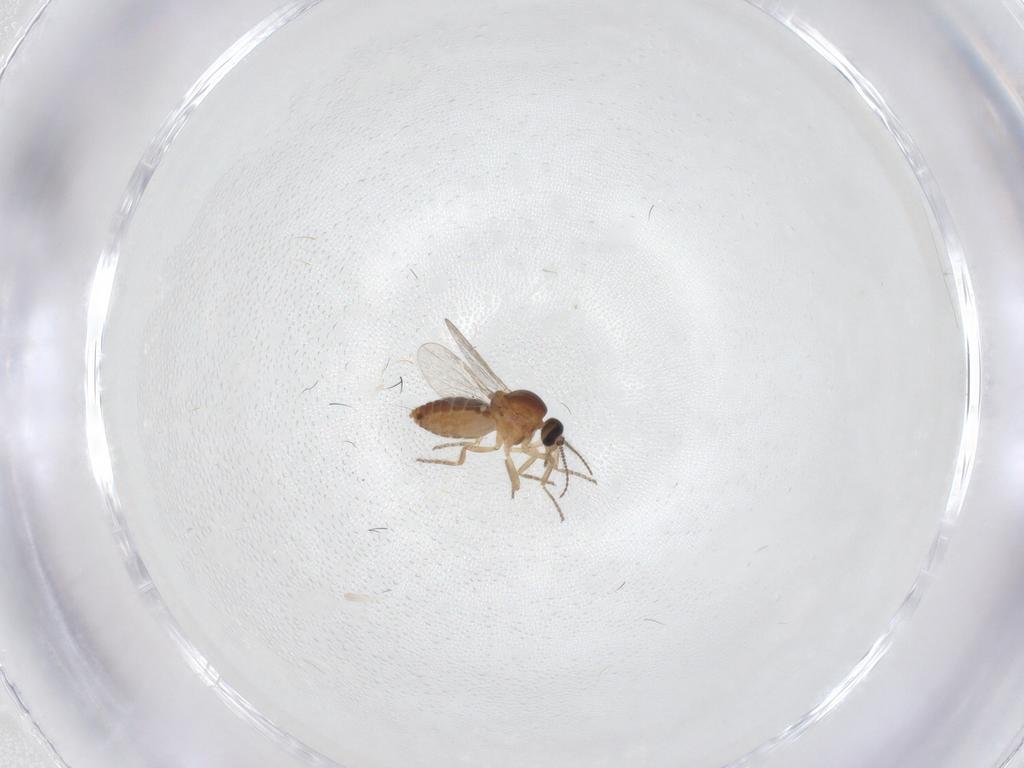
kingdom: Animalia
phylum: Arthropoda
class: Insecta
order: Diptera
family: Ceratopogonidae
